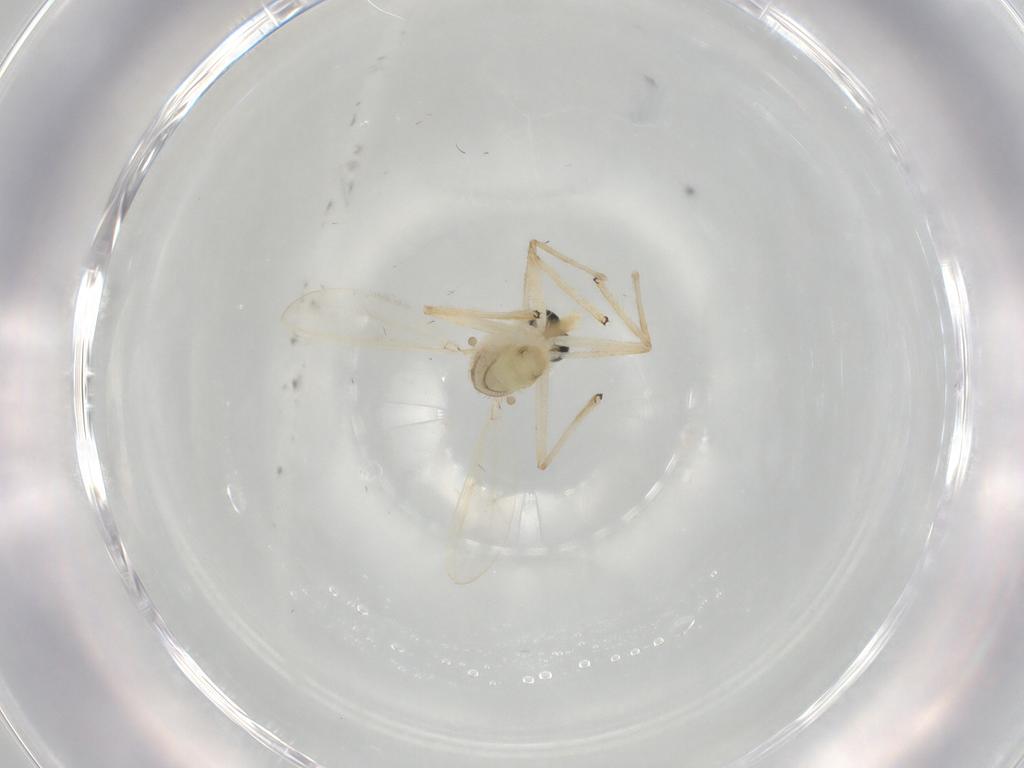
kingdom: Animalia
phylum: Arthropoda
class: Insecta
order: Diptera
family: Chironomidae
